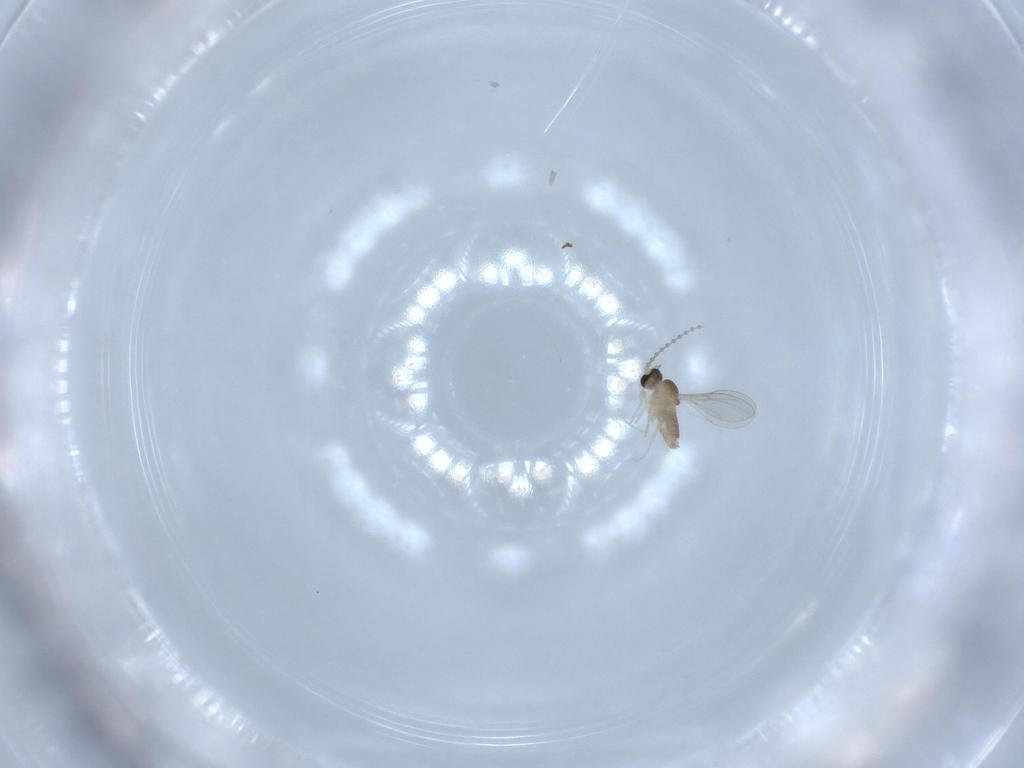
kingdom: Animalia
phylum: Arthropoda
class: Insecta
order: Diptera
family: Cecidomyiidae
